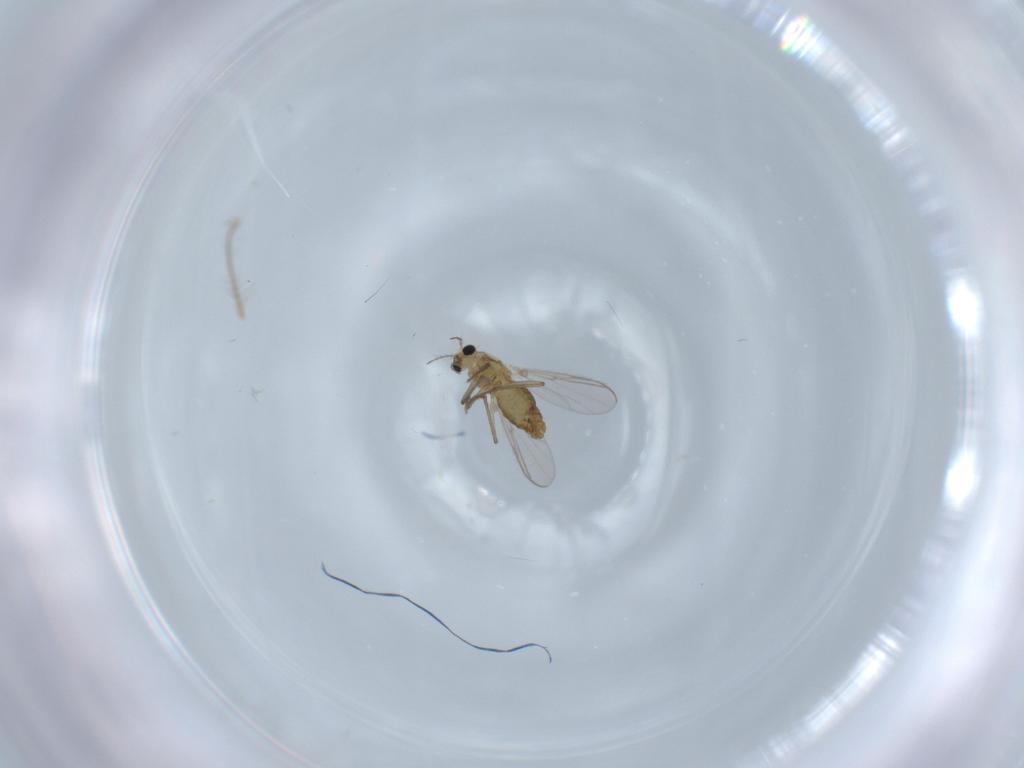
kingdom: Animalia
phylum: Arthropoda
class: Insecta
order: Diptera
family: Chironomidae
